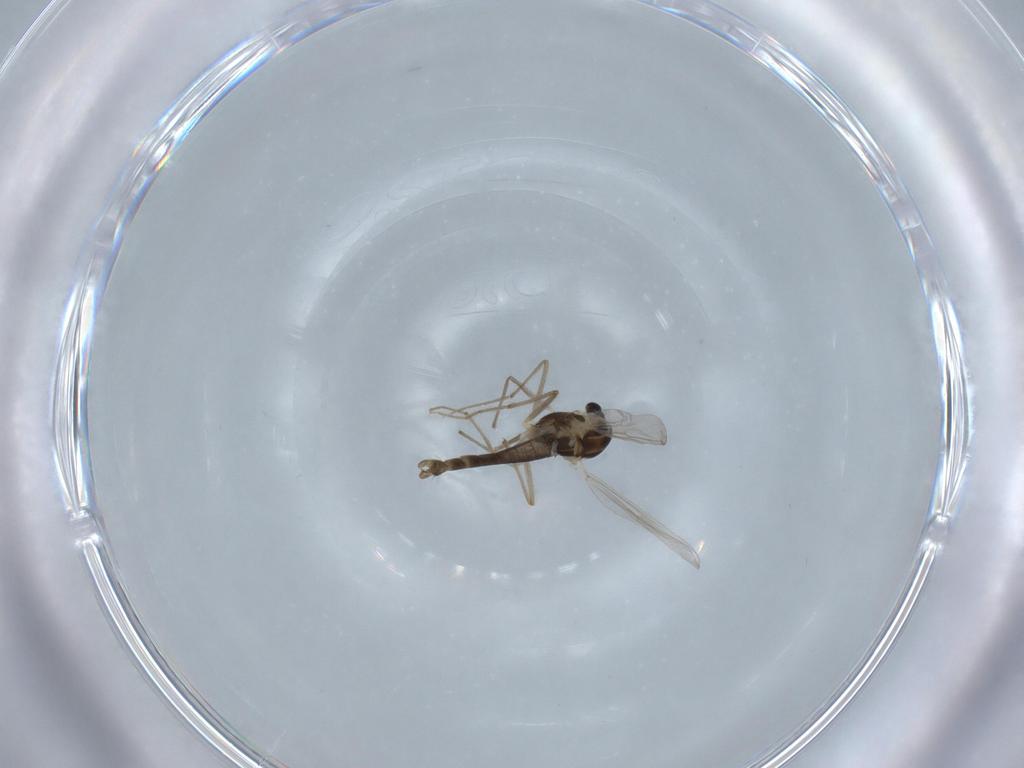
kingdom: Animalia
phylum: Arthropoda
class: Insecta
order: Diptera
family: Chironomidae
